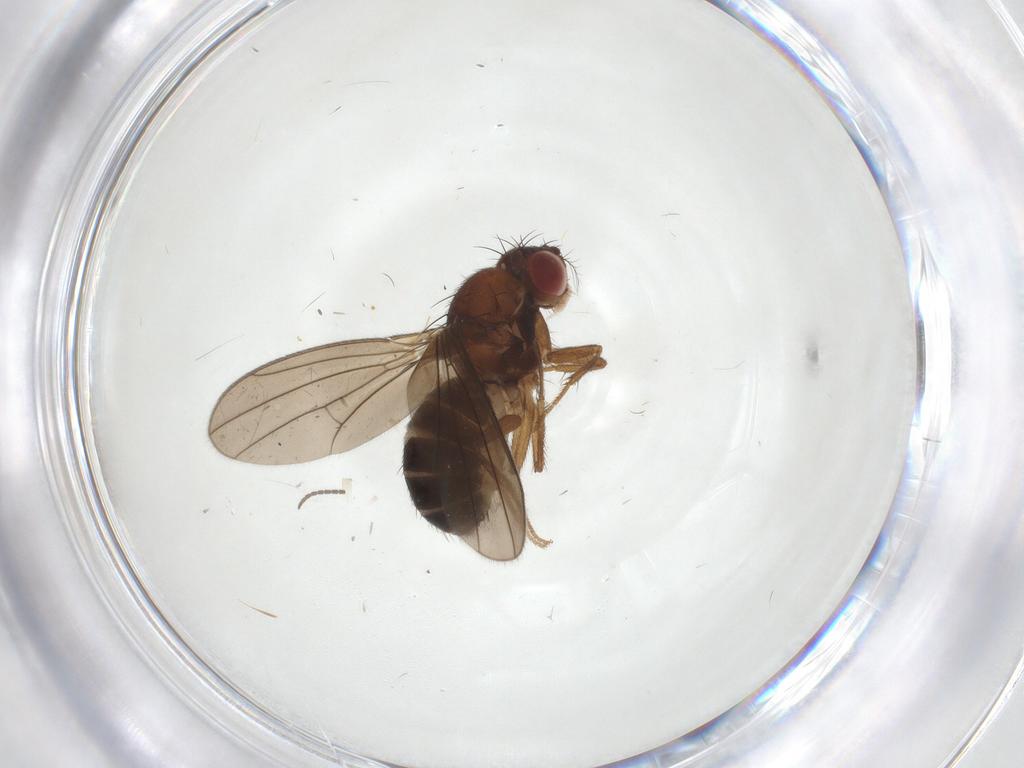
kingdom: Animalia
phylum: Arthropoda
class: Insecta
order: Diptera
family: Drosophilidae
